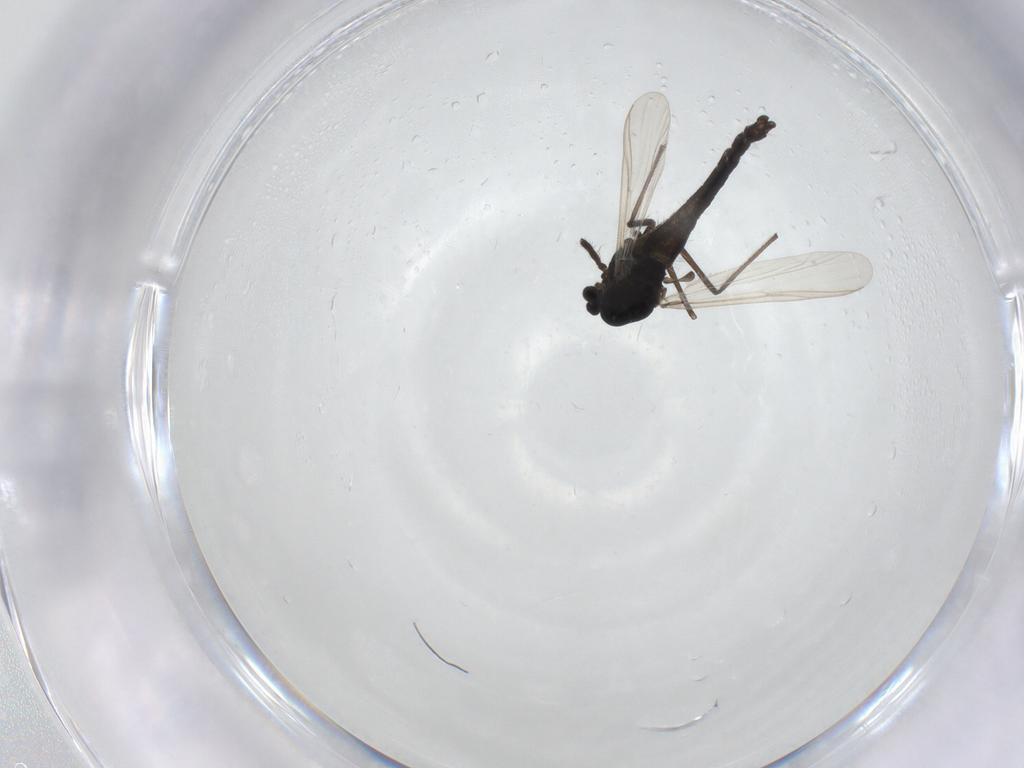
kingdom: Animalia
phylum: Arthropoda
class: Insecta
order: Diptera
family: Chironomidae
